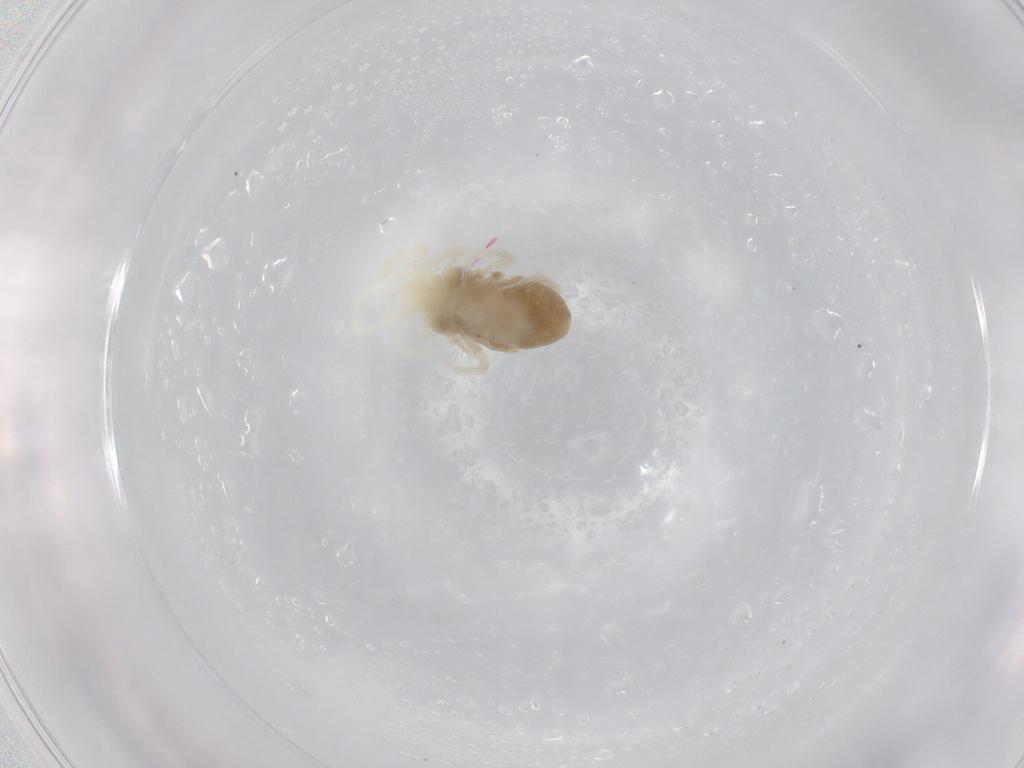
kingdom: Animalia
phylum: Arthropoda
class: Arachnida
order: Trombidiformes
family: Eupodidae
